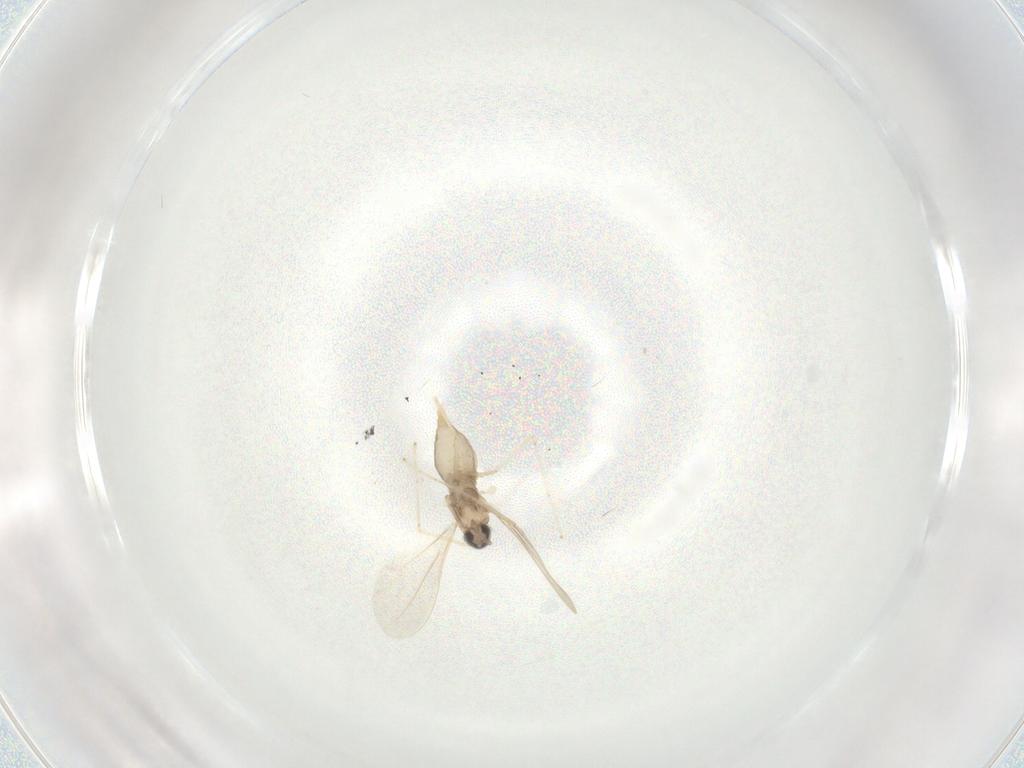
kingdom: Animalia
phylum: Arthropoda
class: Insecta
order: Diptera
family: Cecidomyiidae
